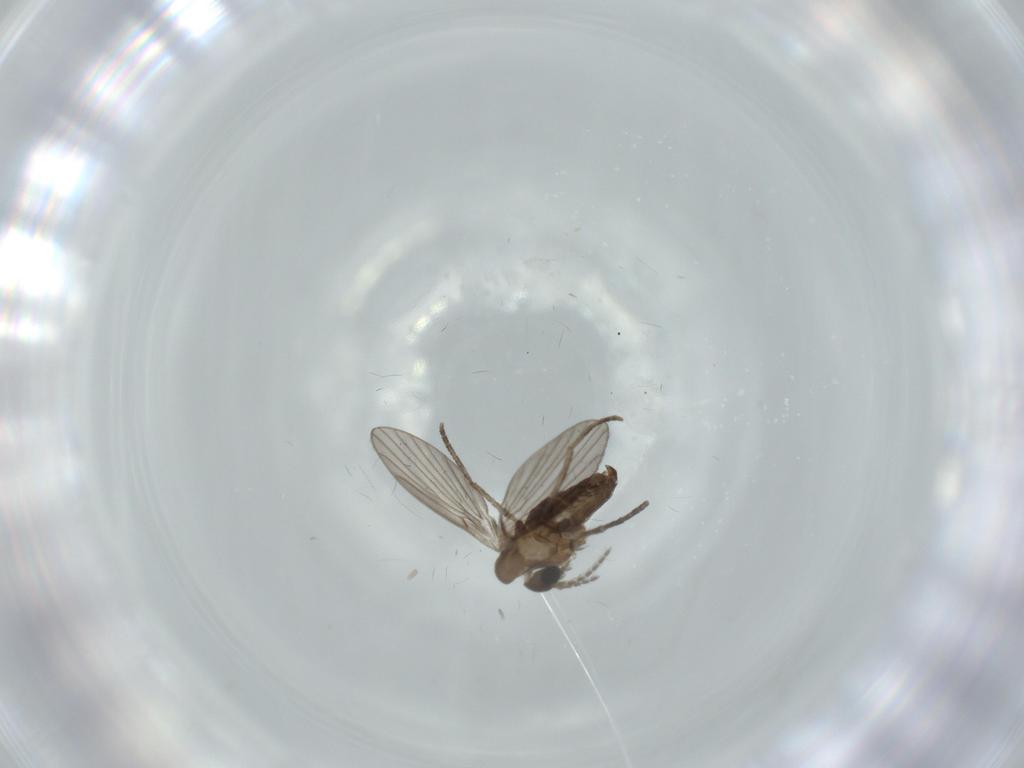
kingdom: Animalia
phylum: Arthropoda
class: Insecta
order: Diptera
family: Psychodidae
